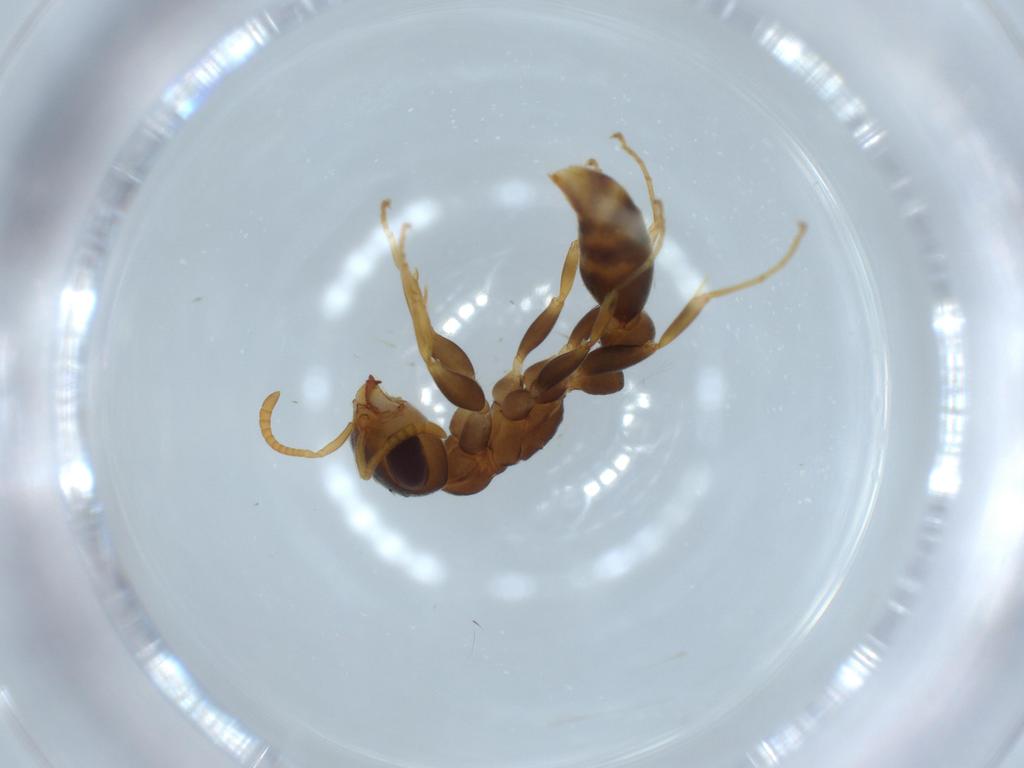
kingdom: Animalia
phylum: Arthropoda
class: Insecta
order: Hymenoptera
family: Formicidae
